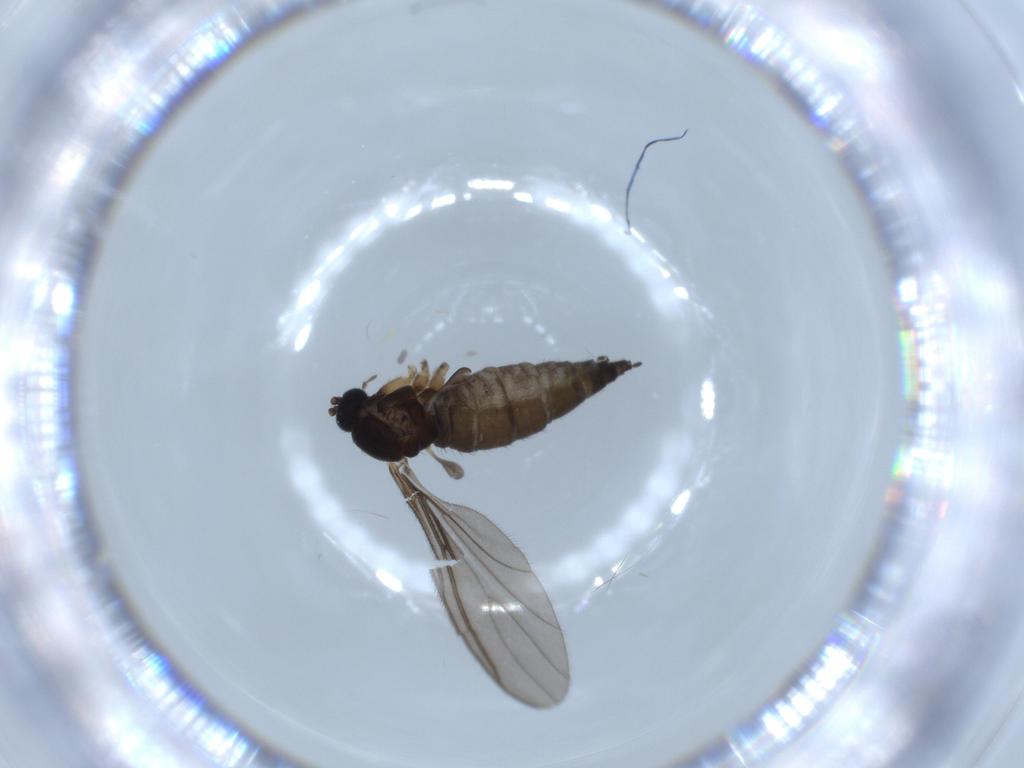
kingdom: Animalia
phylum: Arthropoda
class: Insecta
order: Diptera
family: Sciaridae
